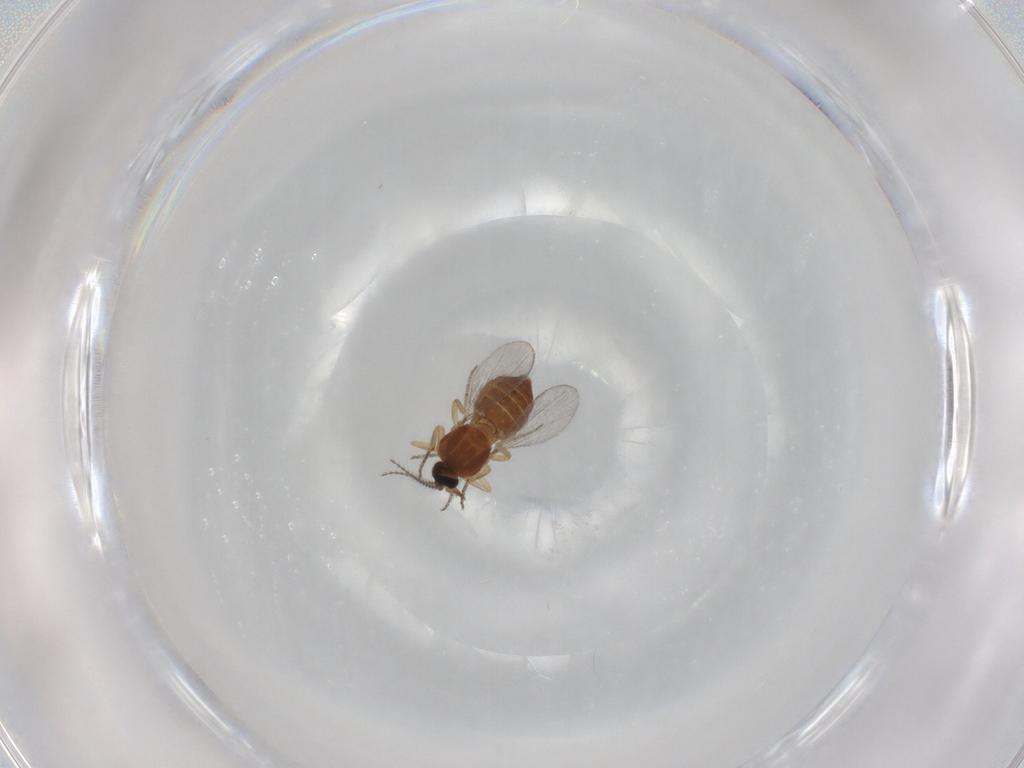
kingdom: Animalia
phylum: Arthropoda
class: Insecta
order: Diptera
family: Ceratopogonidae
